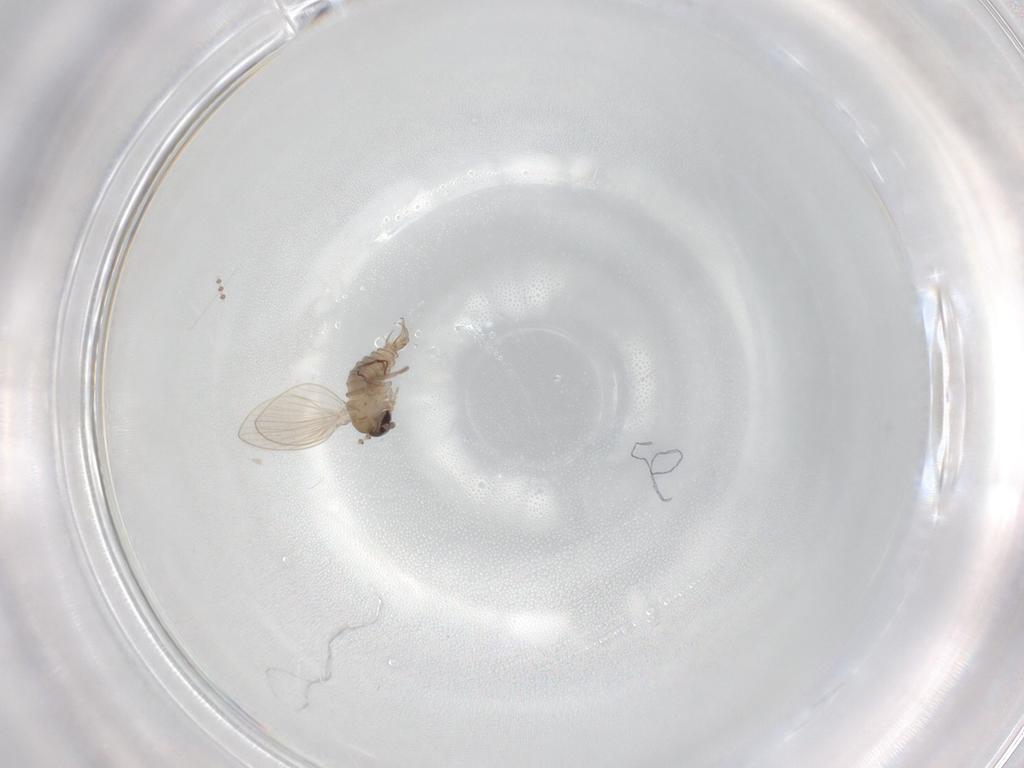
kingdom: Animalia
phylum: Arthropoda
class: Insecta
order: Diptera
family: Psychodidae
